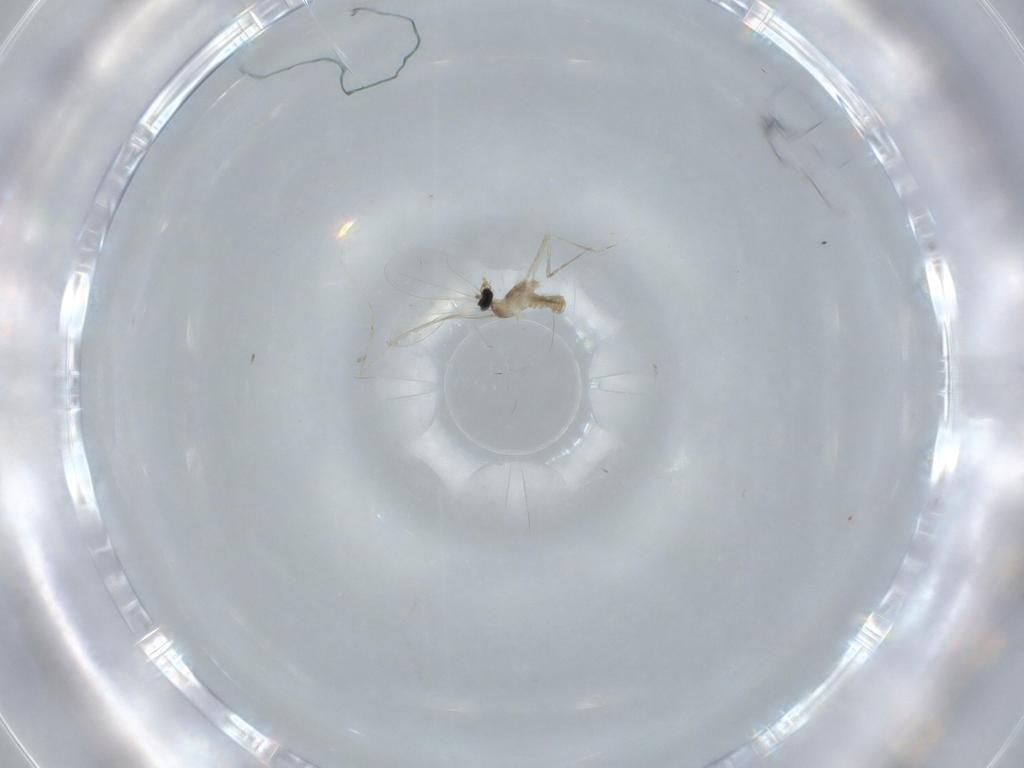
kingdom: Animalia
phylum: Arthropoda
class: Insecta
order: Diptera
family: Cecidomyiidae
